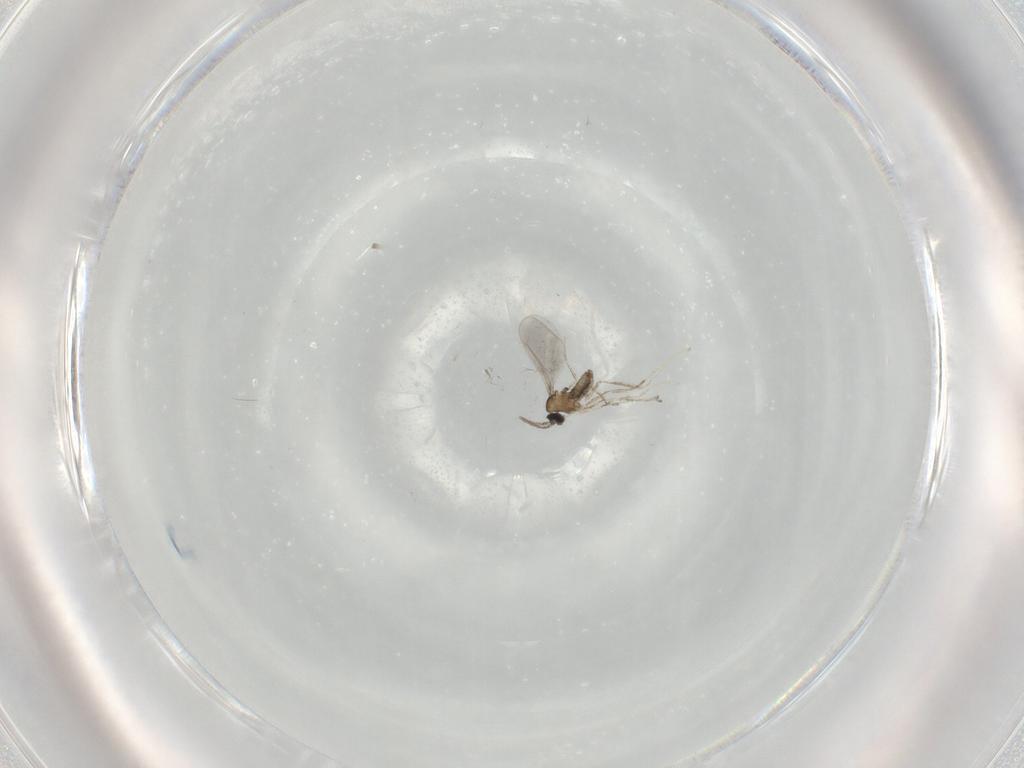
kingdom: Animalia
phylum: Arthropoda
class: Insecta
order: Diptera
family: Cecidomyiidae
